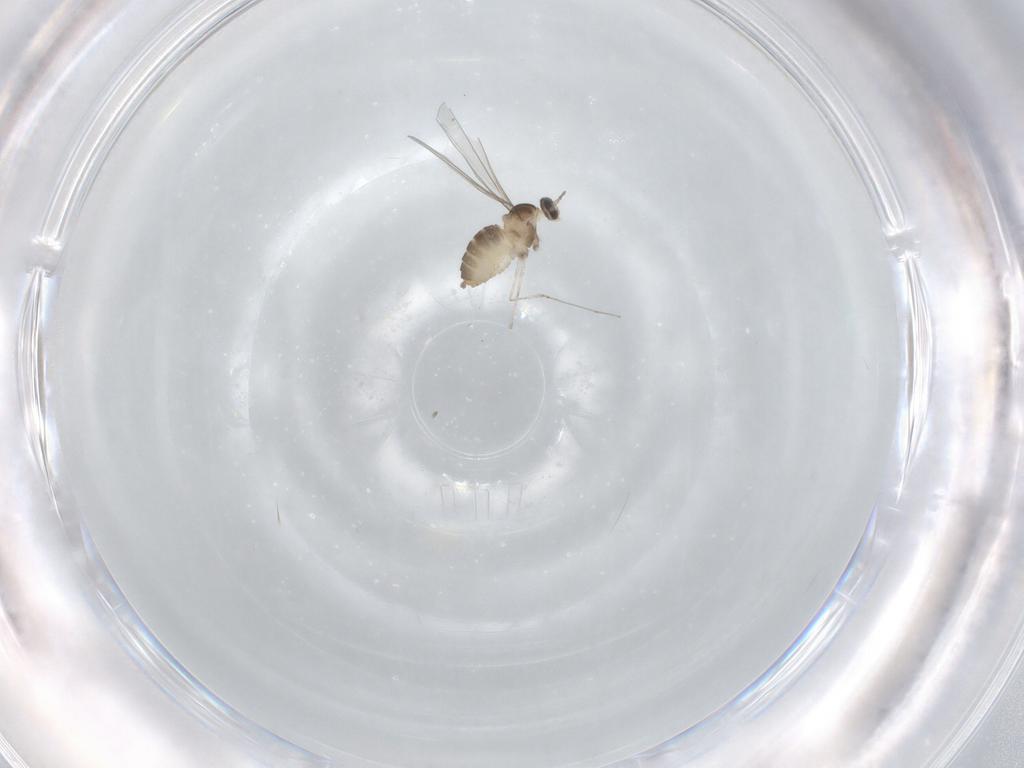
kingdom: Animalia
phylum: Arthropoda
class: Insecta
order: Diptera
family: Cecidomyiidae
